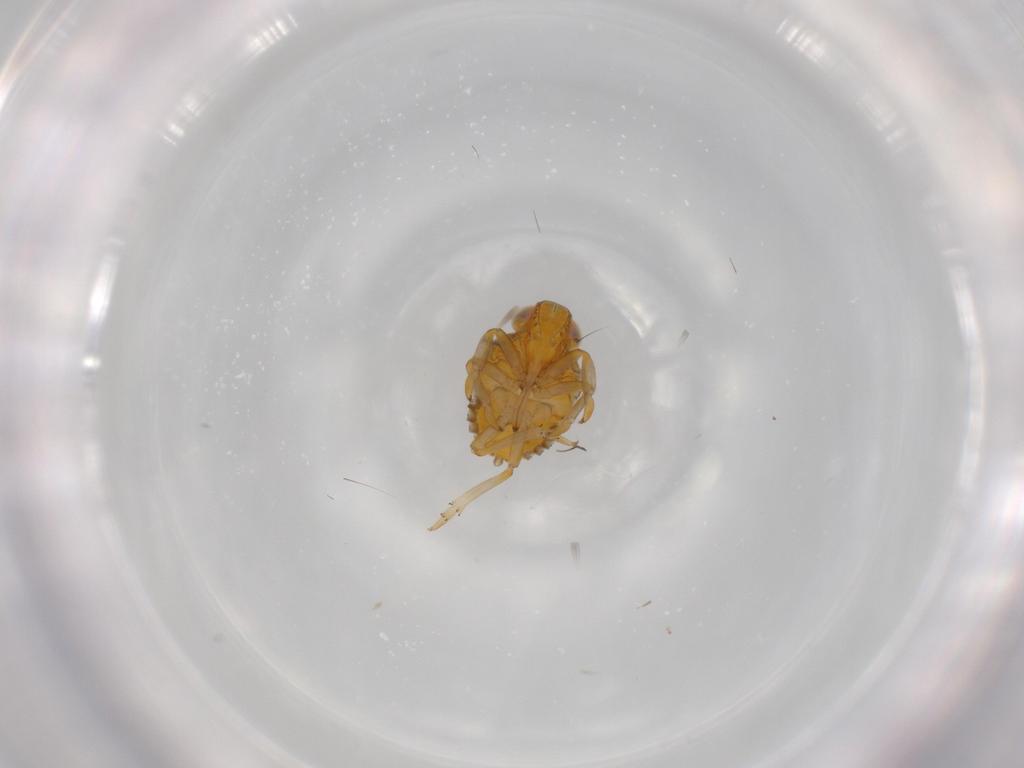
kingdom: Animalia
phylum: Arthropoda
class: Insecta
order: Hemiptera
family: Issidae
